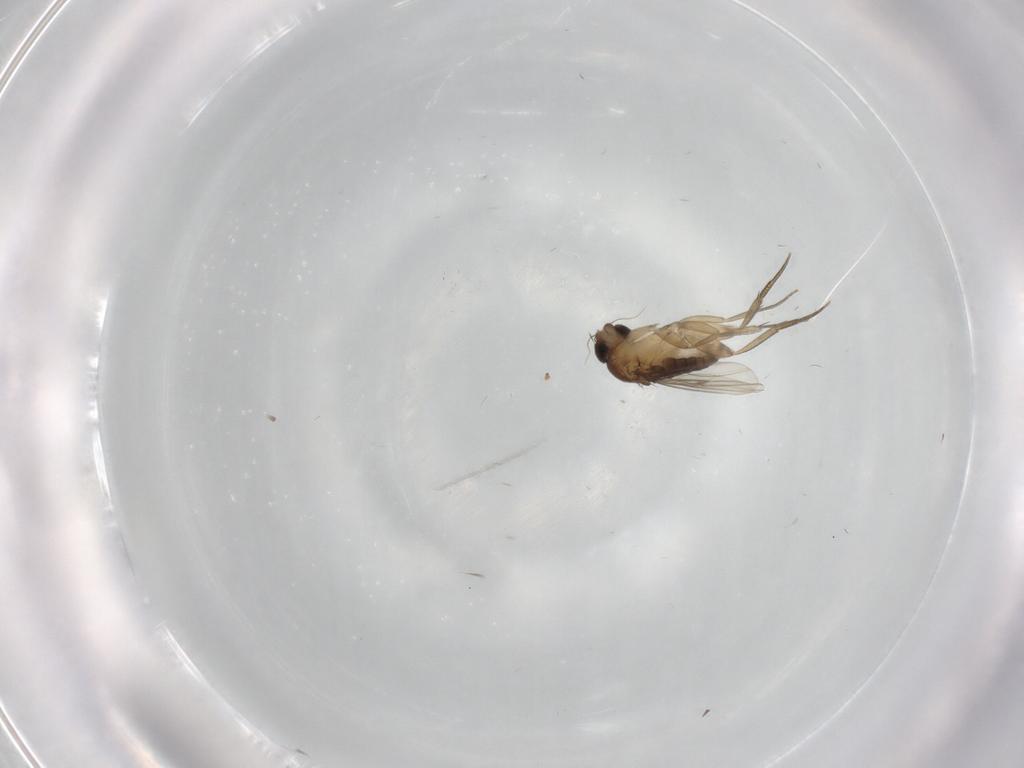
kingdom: Animalia
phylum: Arthropoda
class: Insecta
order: Diptera
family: Phoridae
